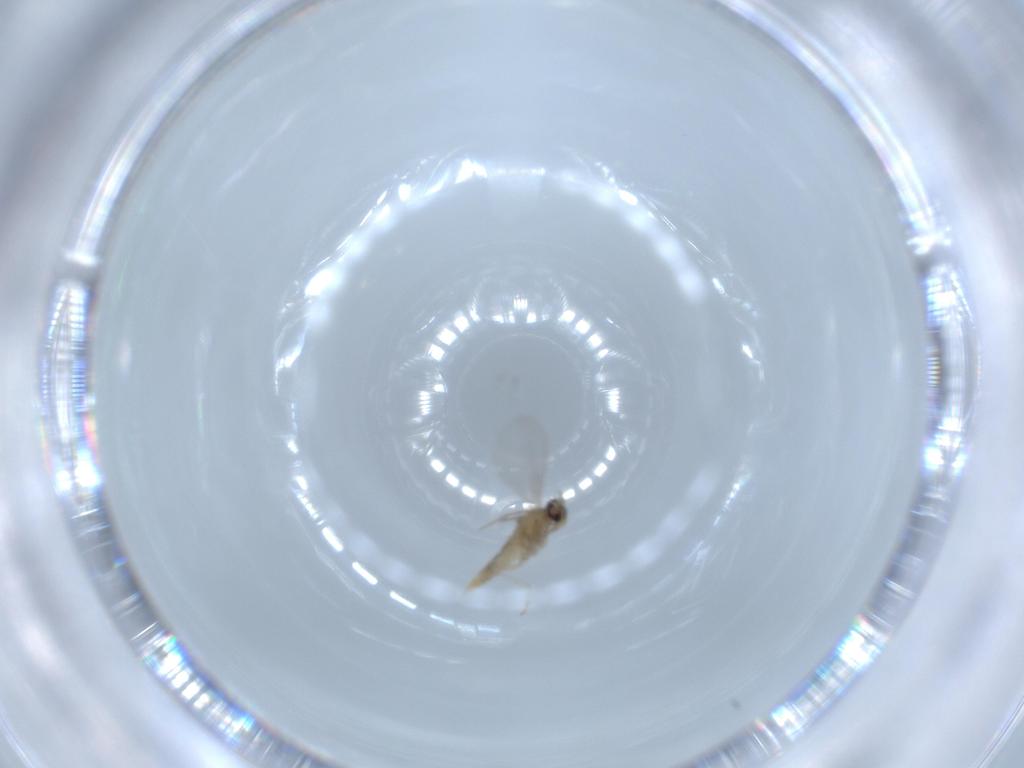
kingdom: Animalia
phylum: Arthropoda
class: Insecta
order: Diptera
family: Cecidomyiidae
